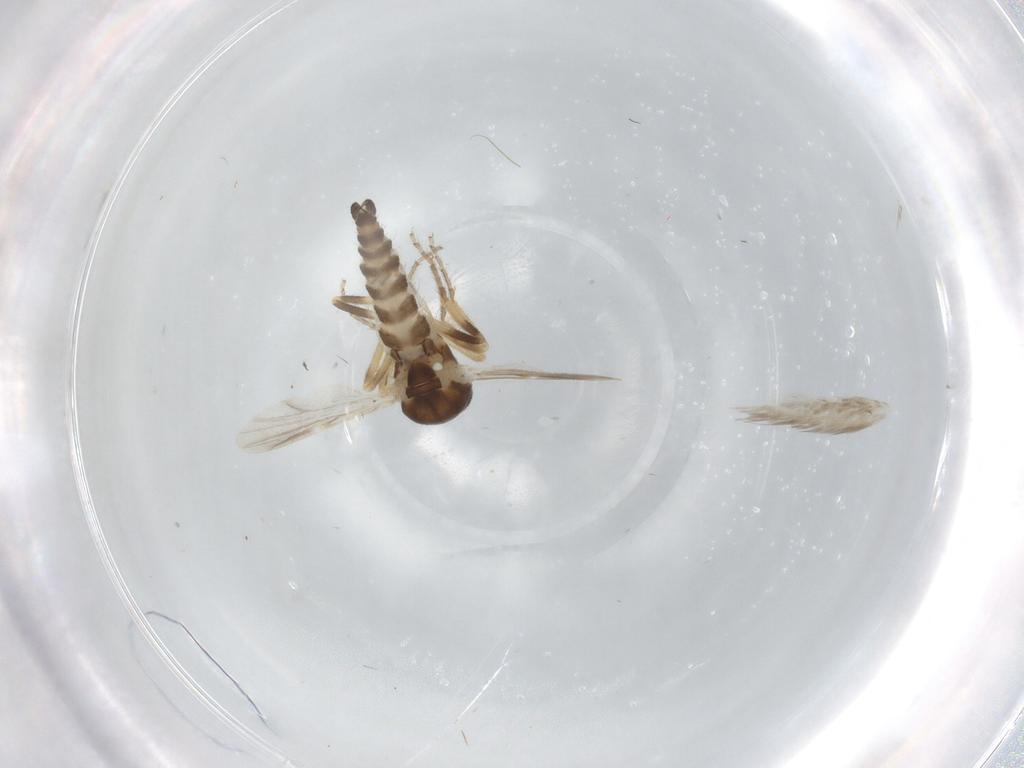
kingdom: Animalia
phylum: Arthropoda
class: Insecta
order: Diptera
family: Ceratopogonidae
